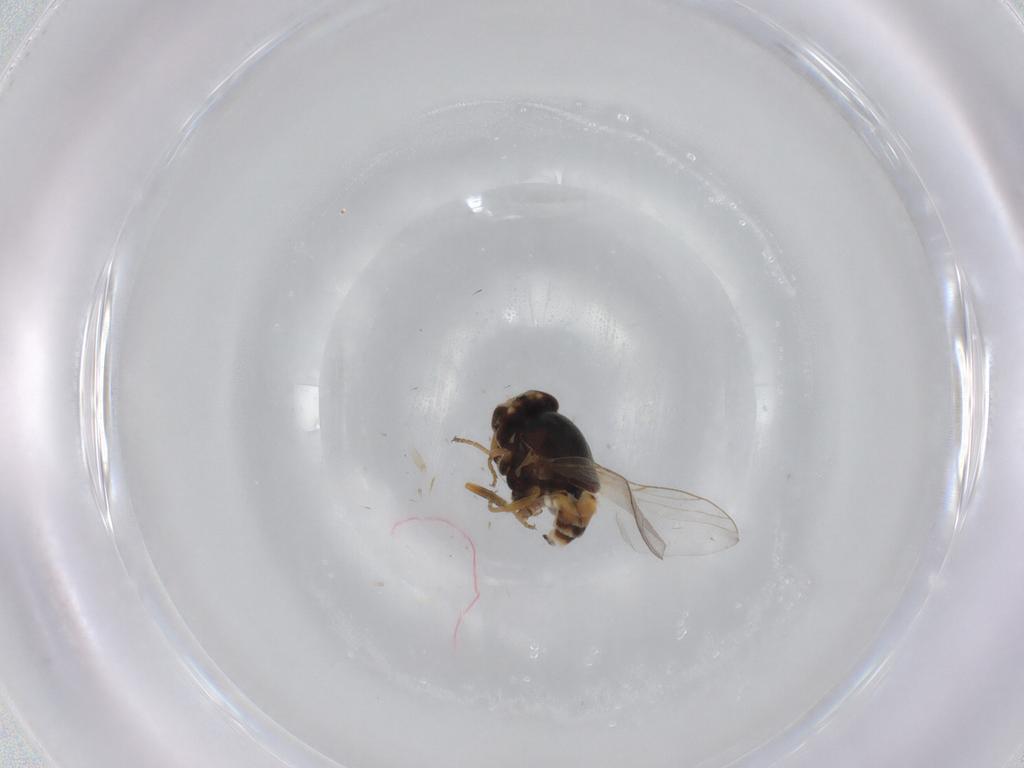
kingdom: Animalia
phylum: Arthropoda
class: Insecta
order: Diptera
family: Chloropidae
